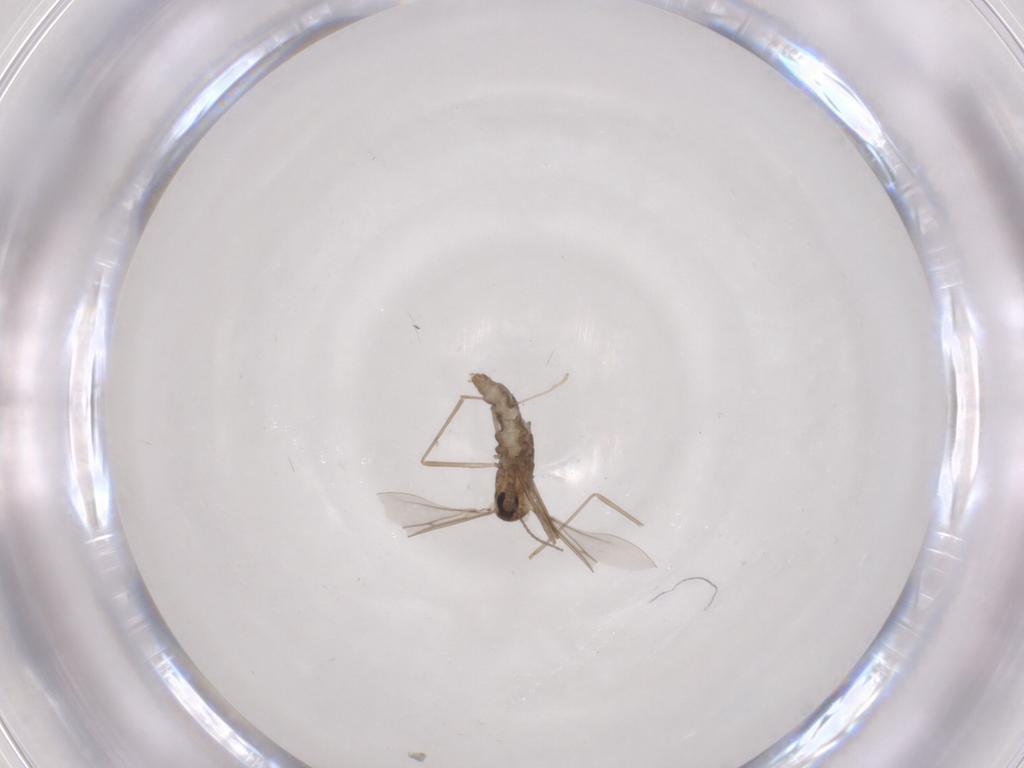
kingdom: Animalia
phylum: Arthropoda
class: Insecta
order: Diptera
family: Cecidomyiidae
